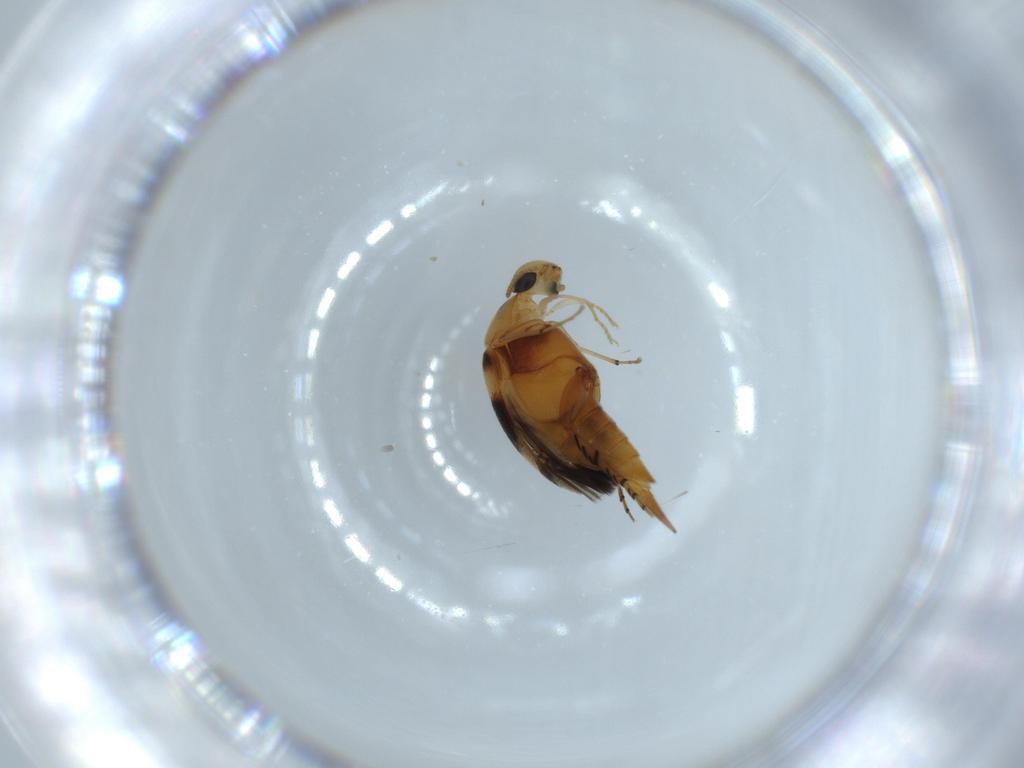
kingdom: Animalia
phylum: Arthropoda
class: Insecta
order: Coleoptera
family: Mordellidae
